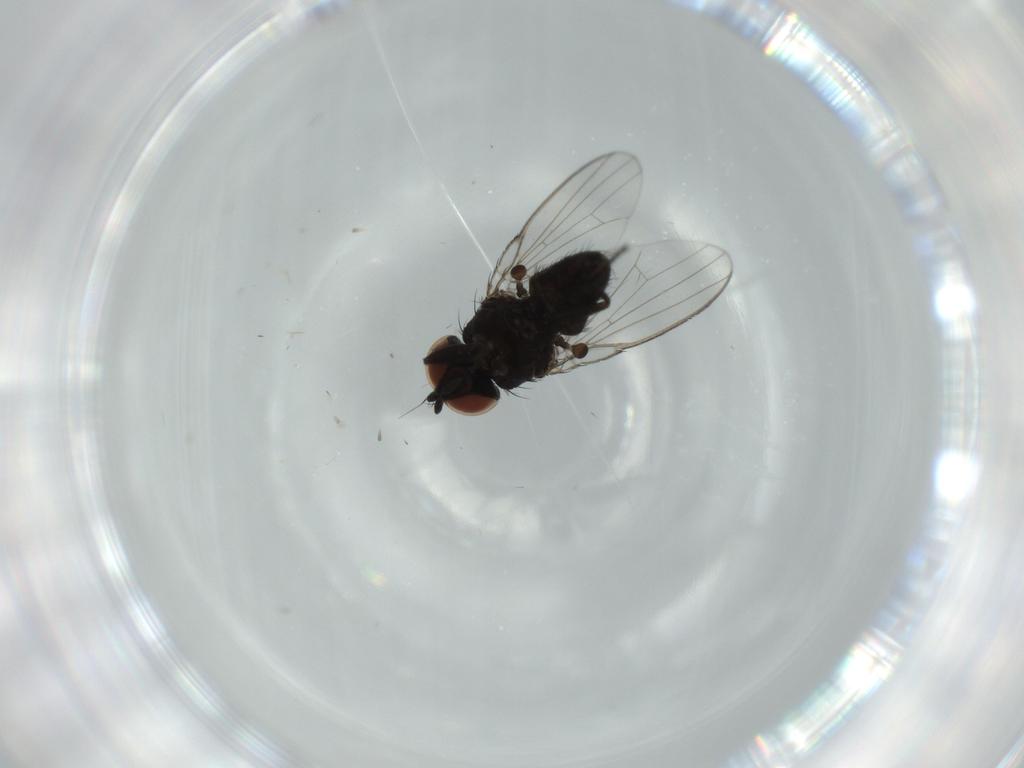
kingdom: Animalia
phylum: Arthropoda
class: Insecta
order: Diptera
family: Milichiidae
